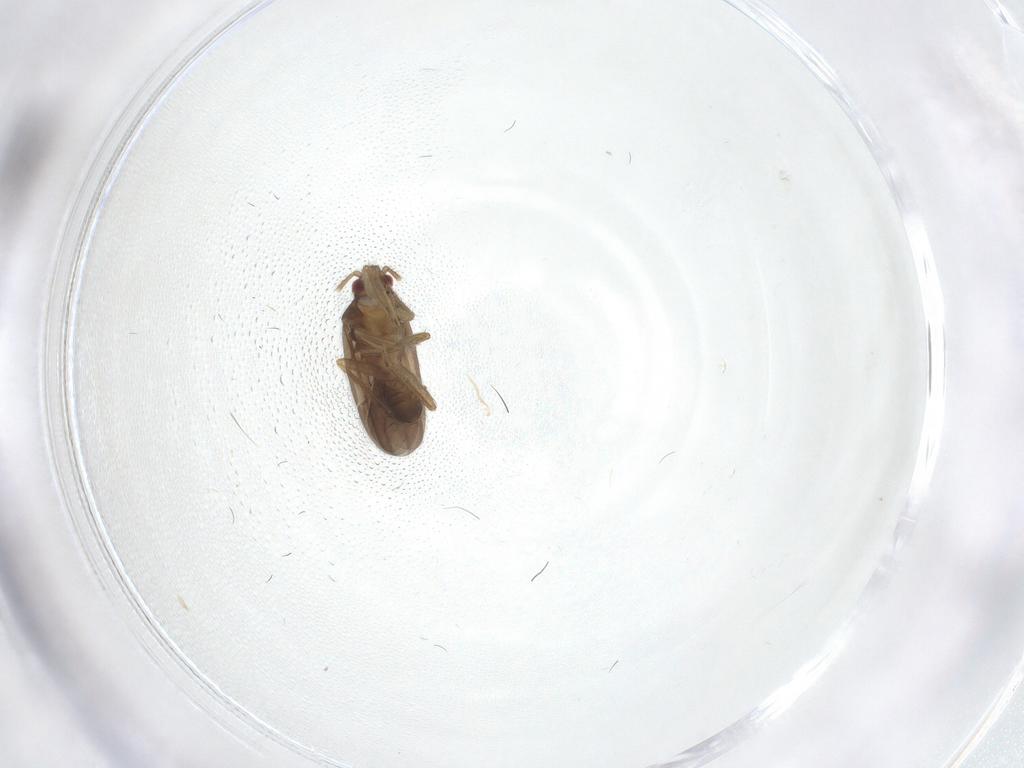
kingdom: Animalia
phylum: Arthropoda
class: Insecta
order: Hemiptera
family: Ceratocombidae
